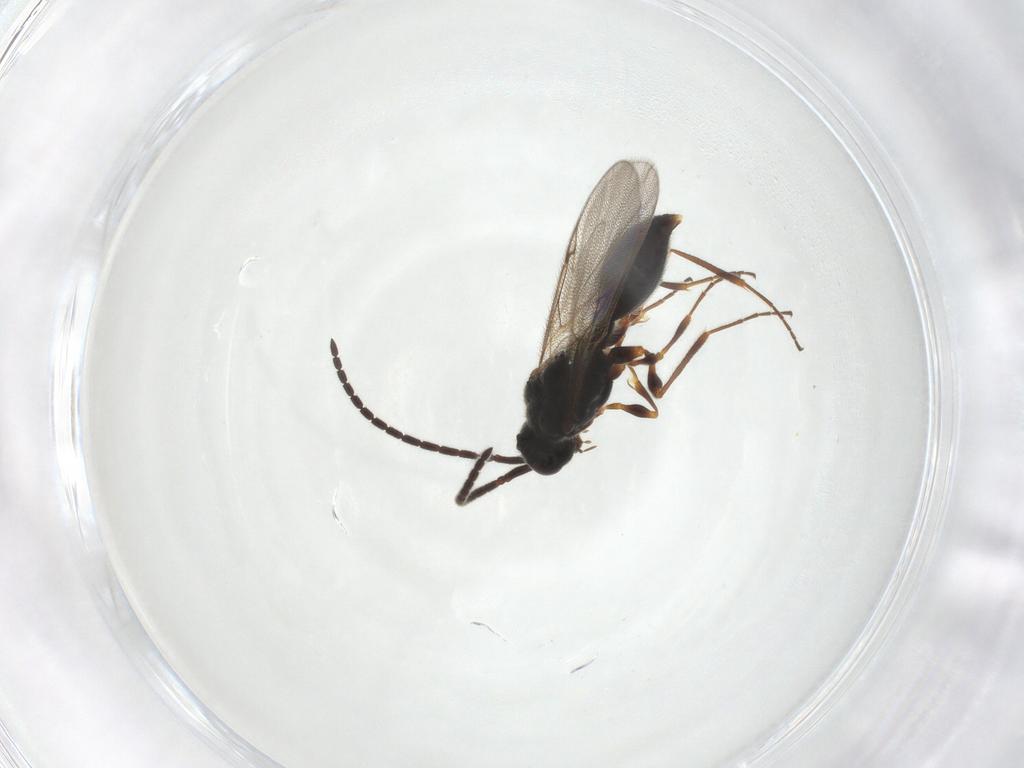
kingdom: Animalia
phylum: Arthropoda
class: Insecta
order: Hymenoptera
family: Diapriidae
